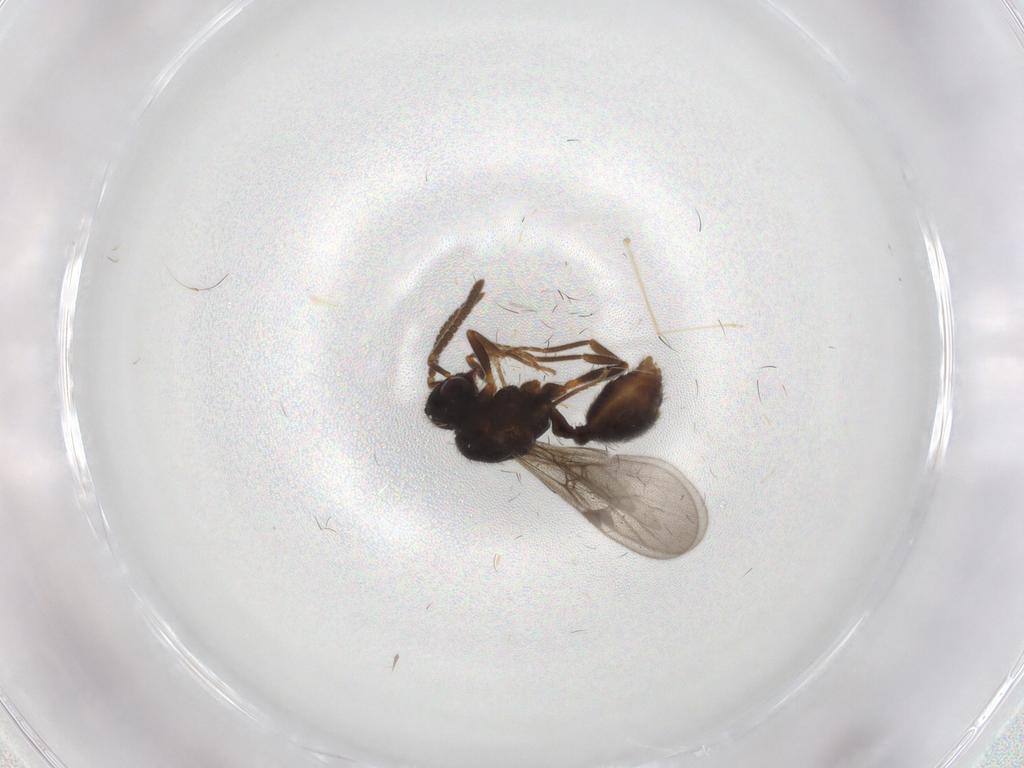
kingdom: Animalia
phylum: Arthropoda
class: Insecta
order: Hymenoptera
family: Formicidae
